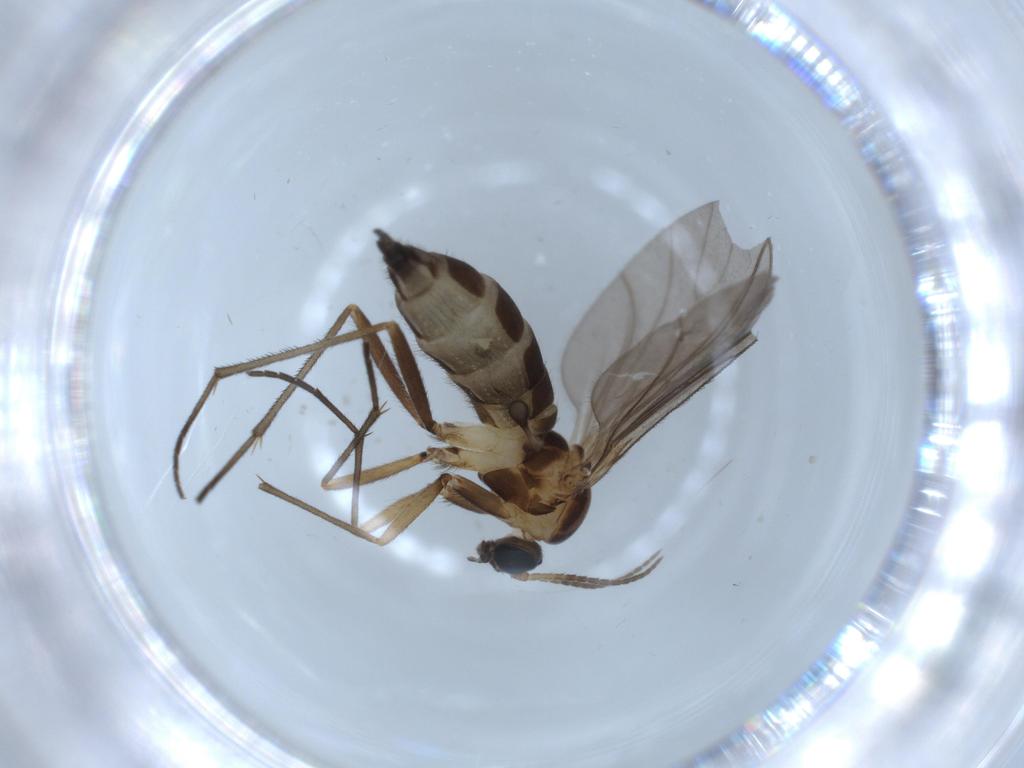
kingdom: Animalia
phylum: Arthropoda
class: Insecta
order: Diptera
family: Sciaridae
